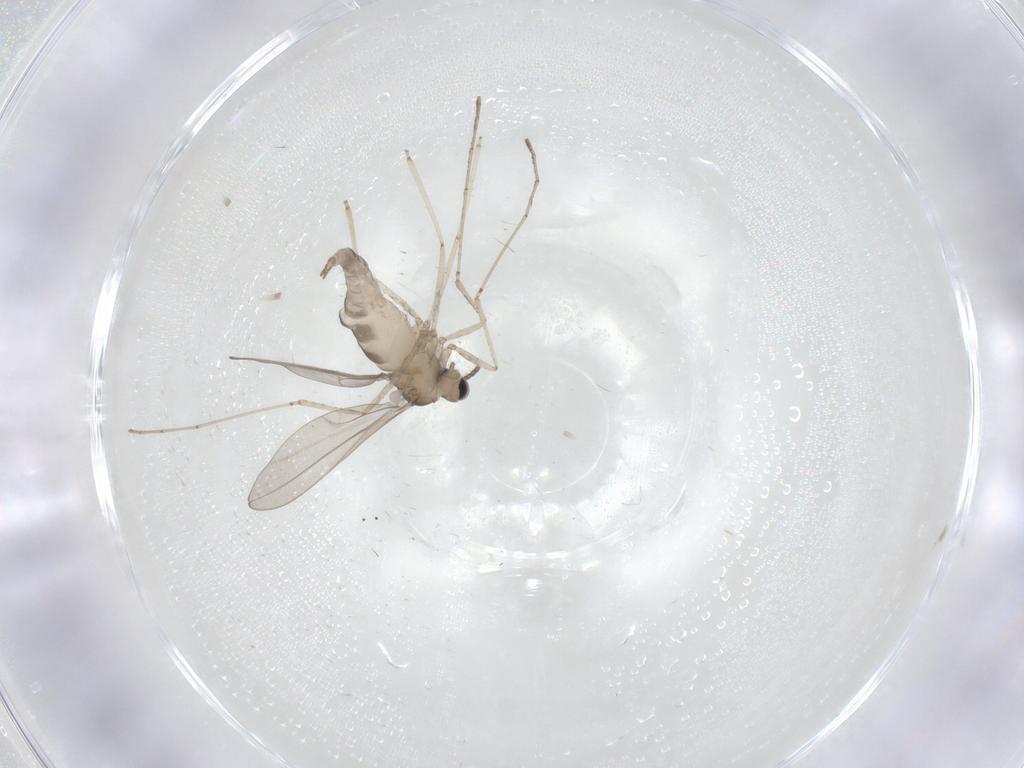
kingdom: Animalia
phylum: Arthropoda
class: Insecta
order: Diptera
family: Cecidomyiidae
